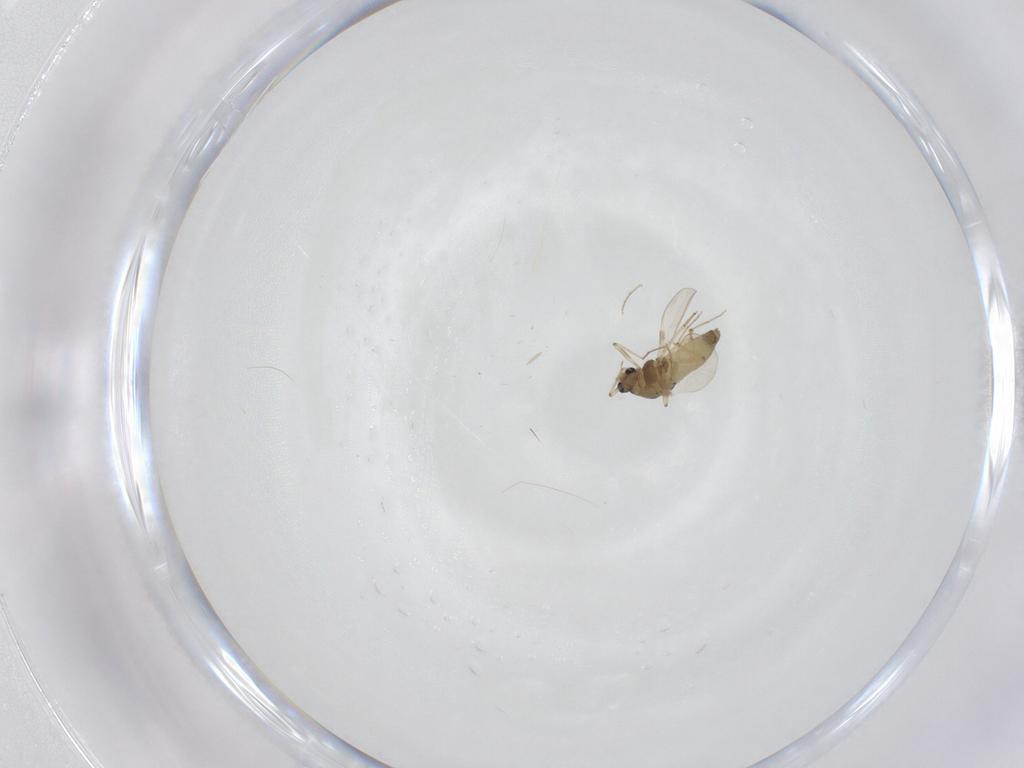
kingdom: Animalia
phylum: Arthropoda
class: Insecta
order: Diptera
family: Chironomidae
